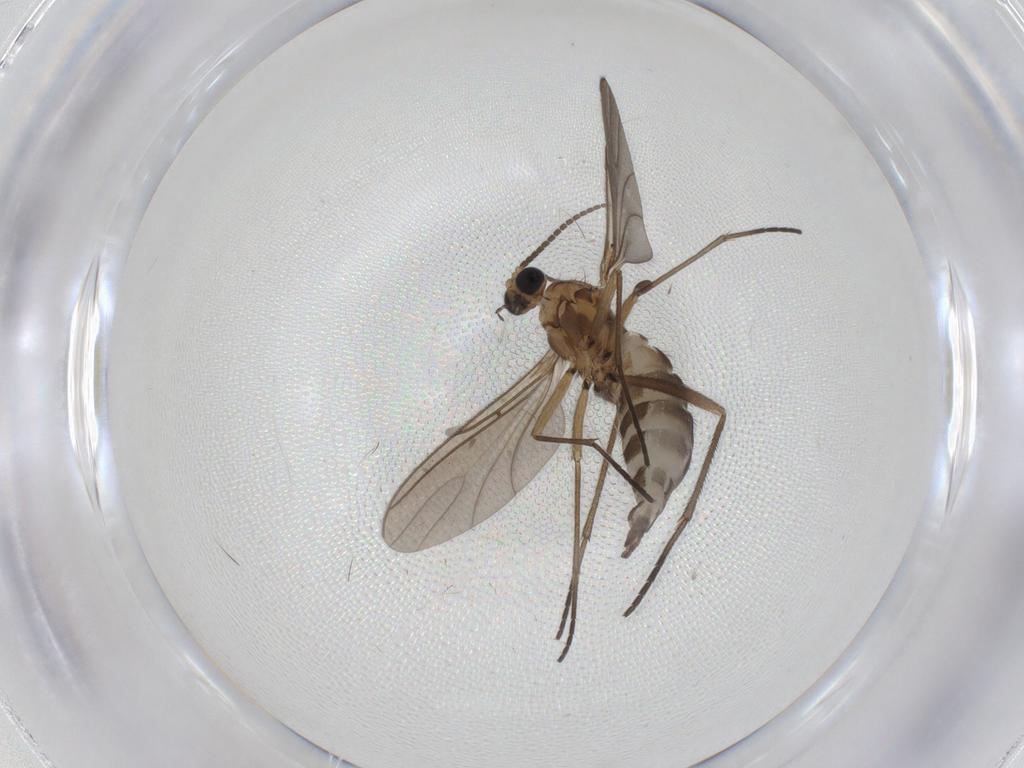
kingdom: Animalia
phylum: Arthropoda
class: Insecta
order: Diptera
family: Sciaridae
